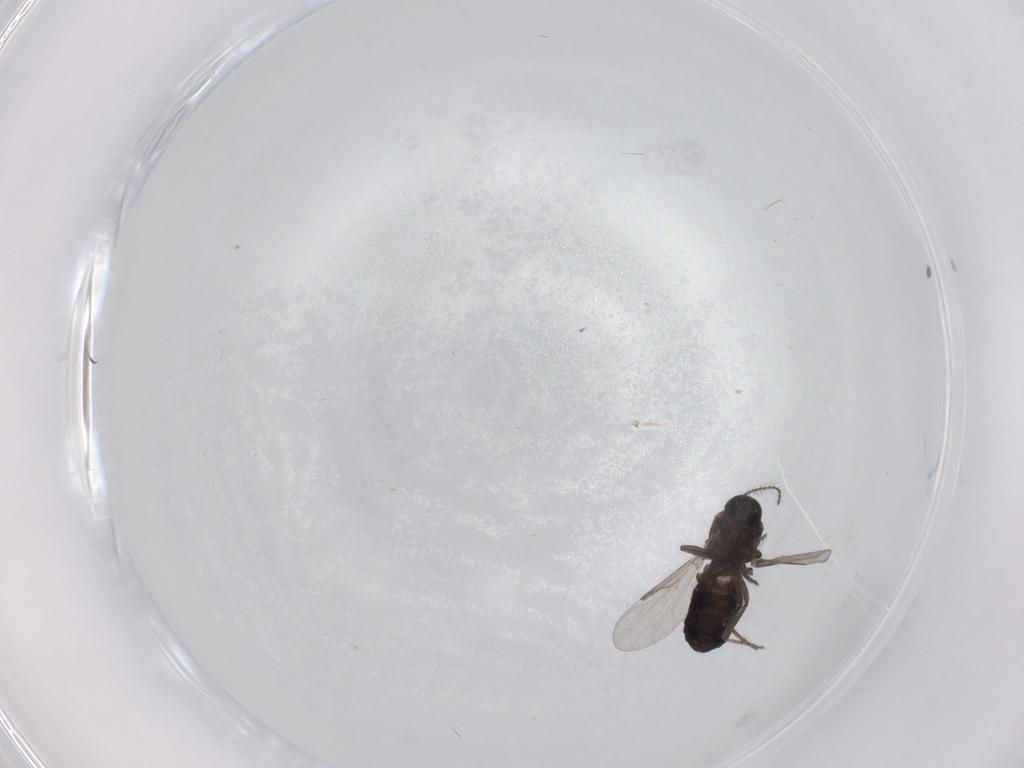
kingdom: Animalia
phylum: Arthropoda
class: Insecta
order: Diptera
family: Ceratopogonidae
